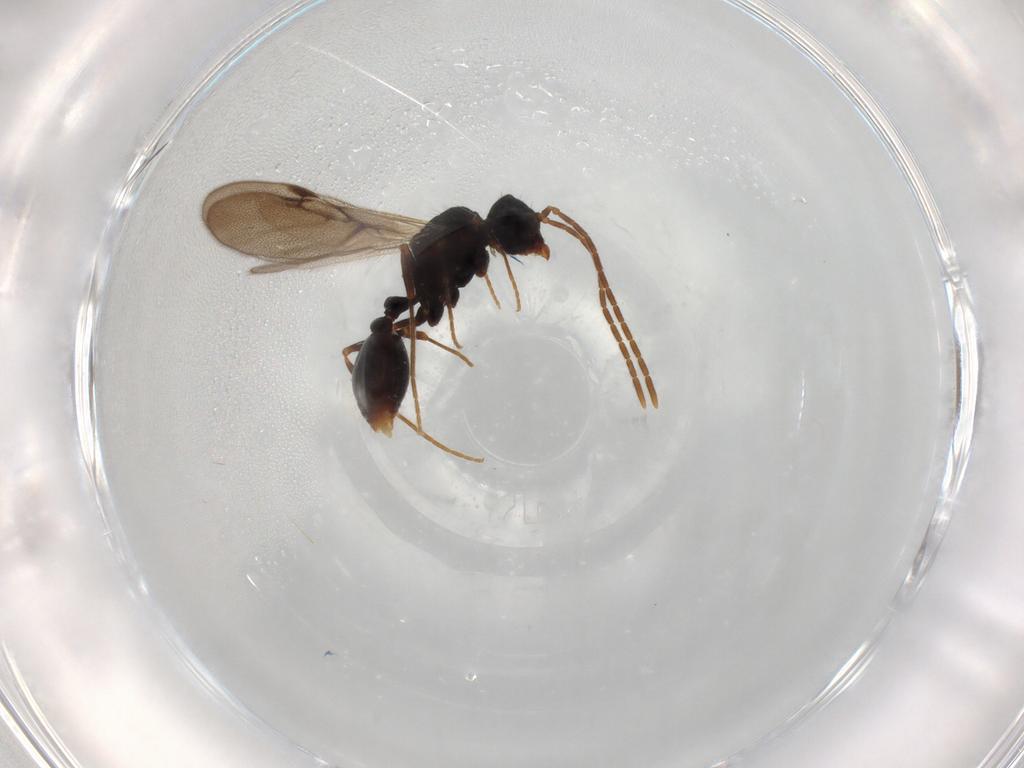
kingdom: Animalia
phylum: Arthropoda
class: Insecta
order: Hymenoptera
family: Formicidae
